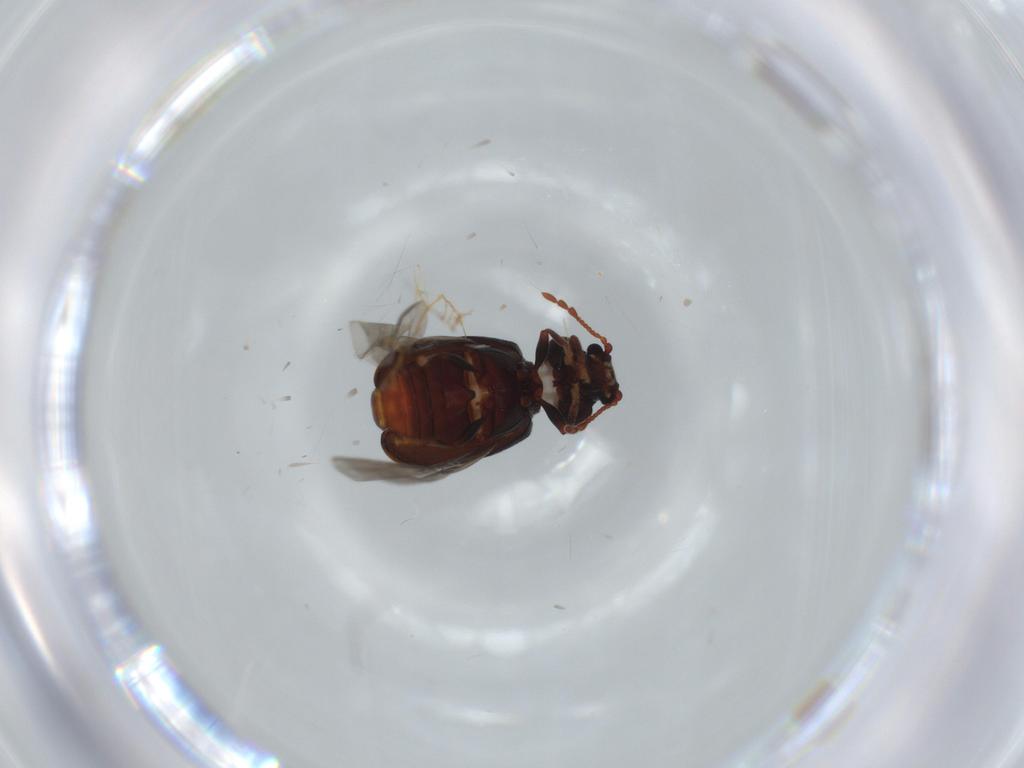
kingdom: Animalia
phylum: Arthropoda
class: Insecta
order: Coleoptera
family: Ptinidae
